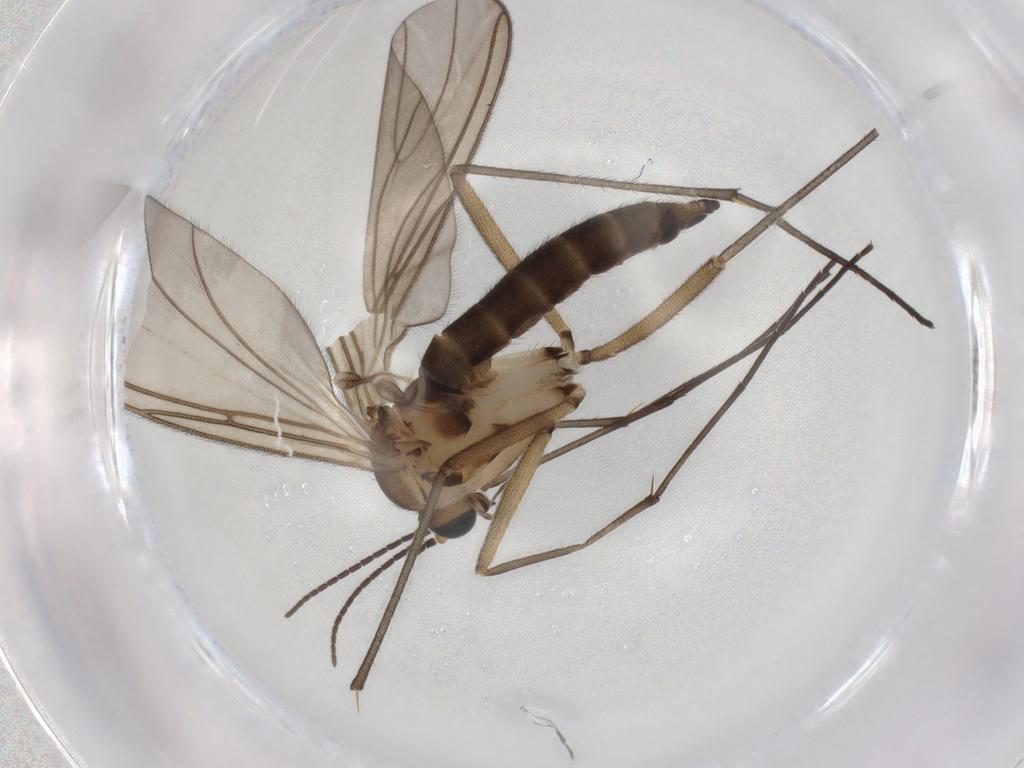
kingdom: Animalia
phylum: Arthropoda
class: Insecta
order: Diptera
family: Sciaridae
